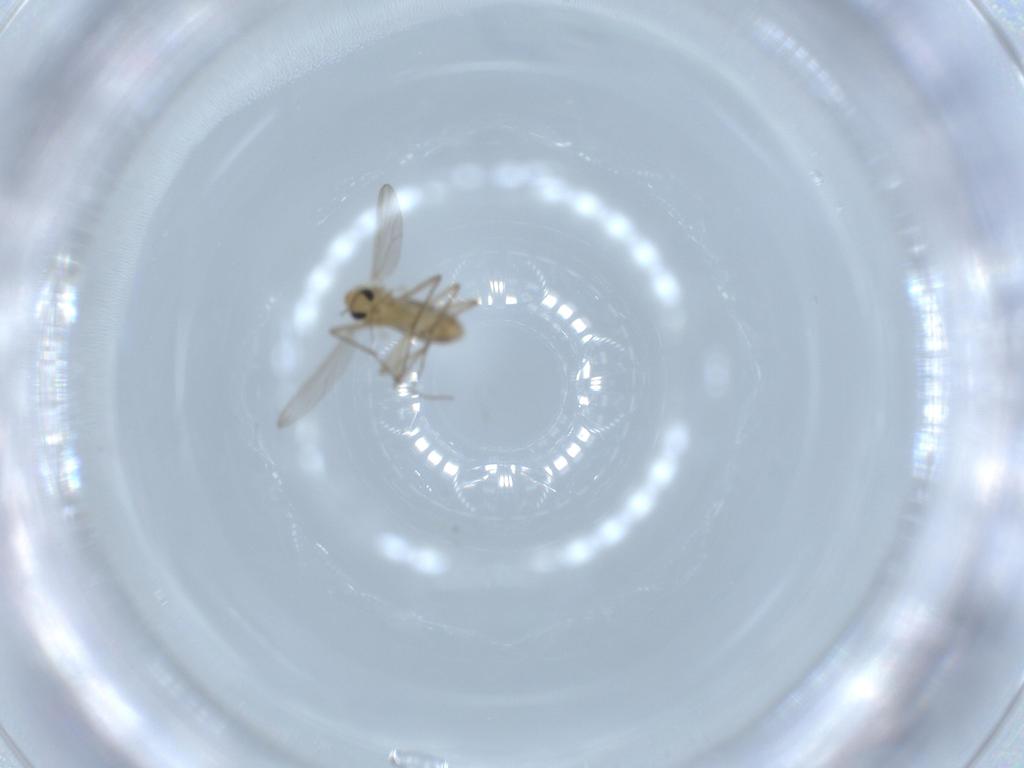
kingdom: Animalia
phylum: Arthropoda
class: Insecta
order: Diptera
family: Chironomidae
